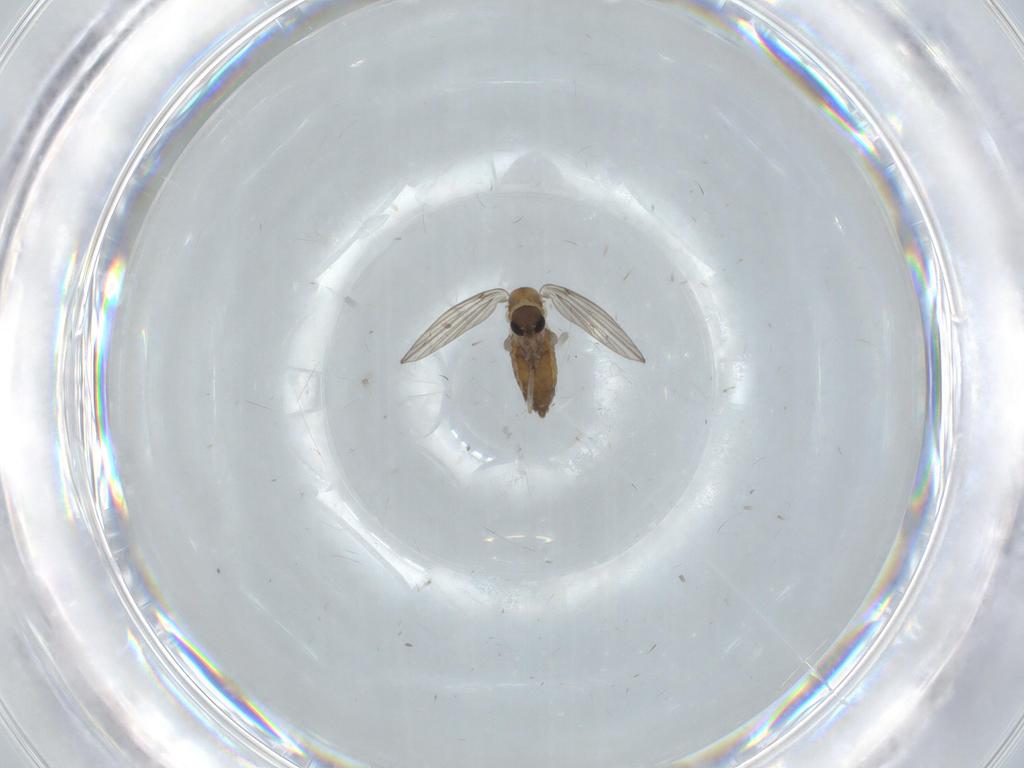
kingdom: Animalia
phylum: Arthropoda
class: Insecta
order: Diptera
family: Psychodidae
